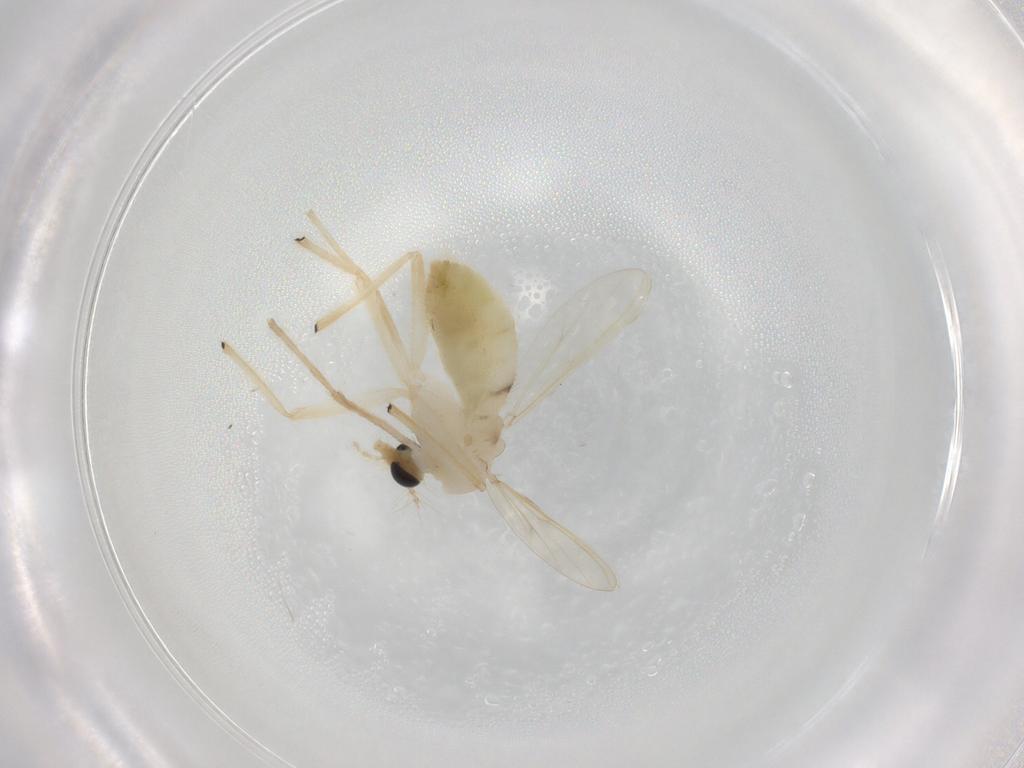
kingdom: Animalia
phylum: Arthropoda
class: Insecta
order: Diptera
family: Chironomidae
